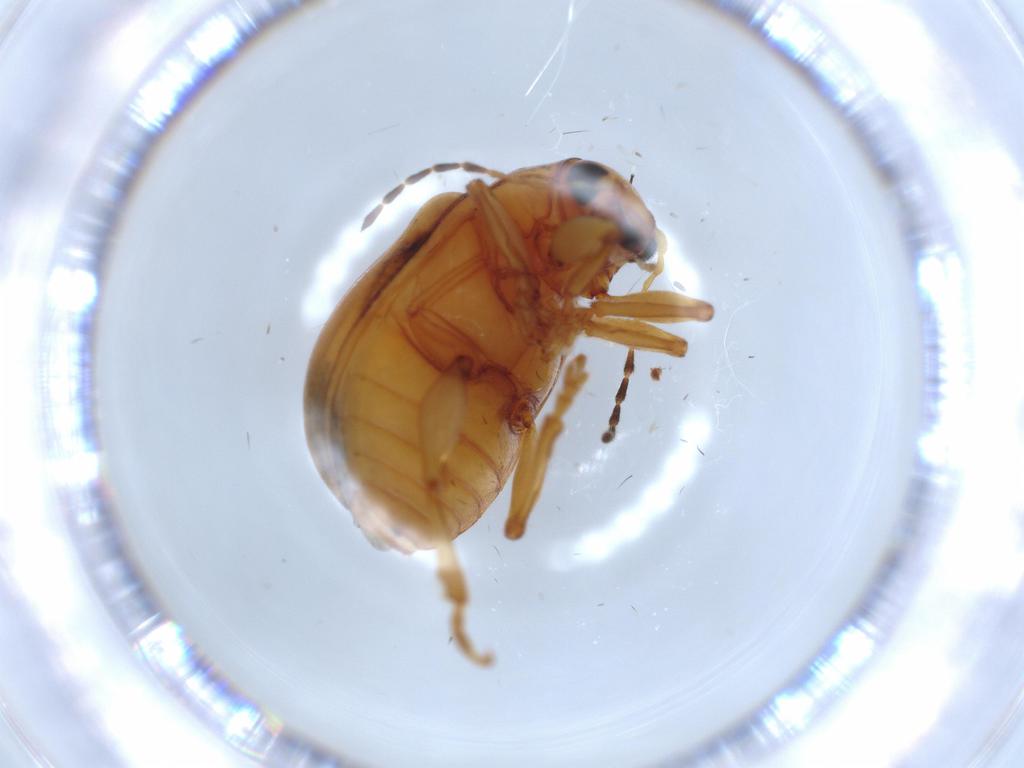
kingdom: Animalia
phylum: Arthropoda
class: Insecta
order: Coleoptera
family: Chrysomelidae
